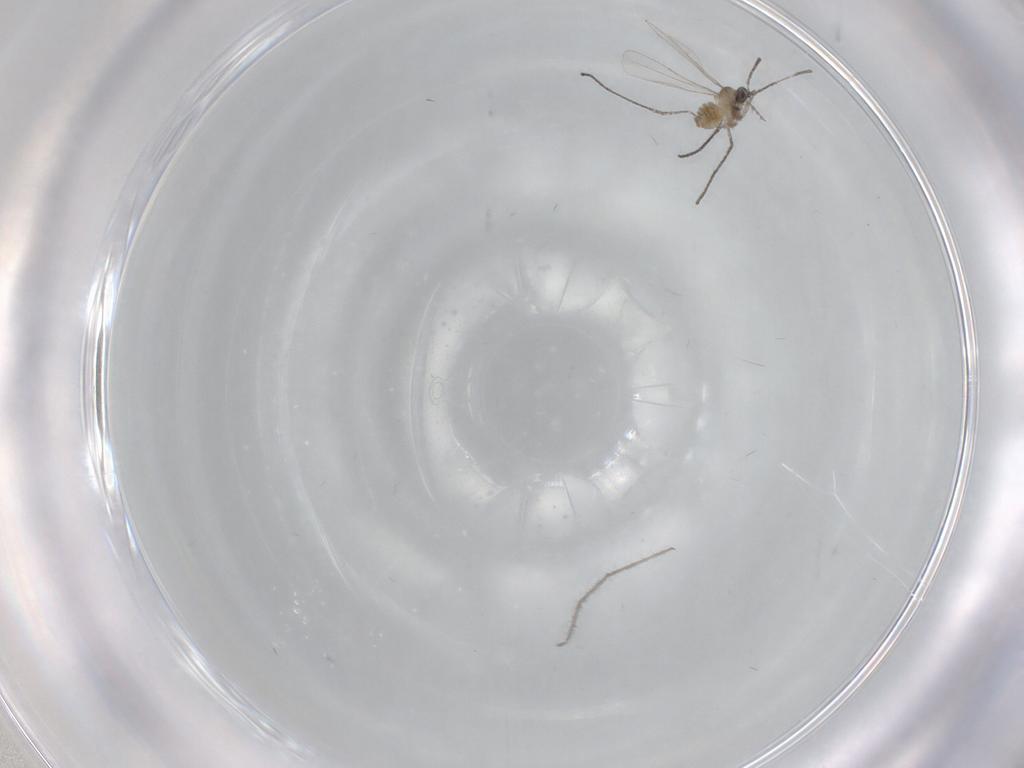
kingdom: Animalia
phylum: Arthropoda
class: Insecta
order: Diptera
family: Cecidomyiidae
